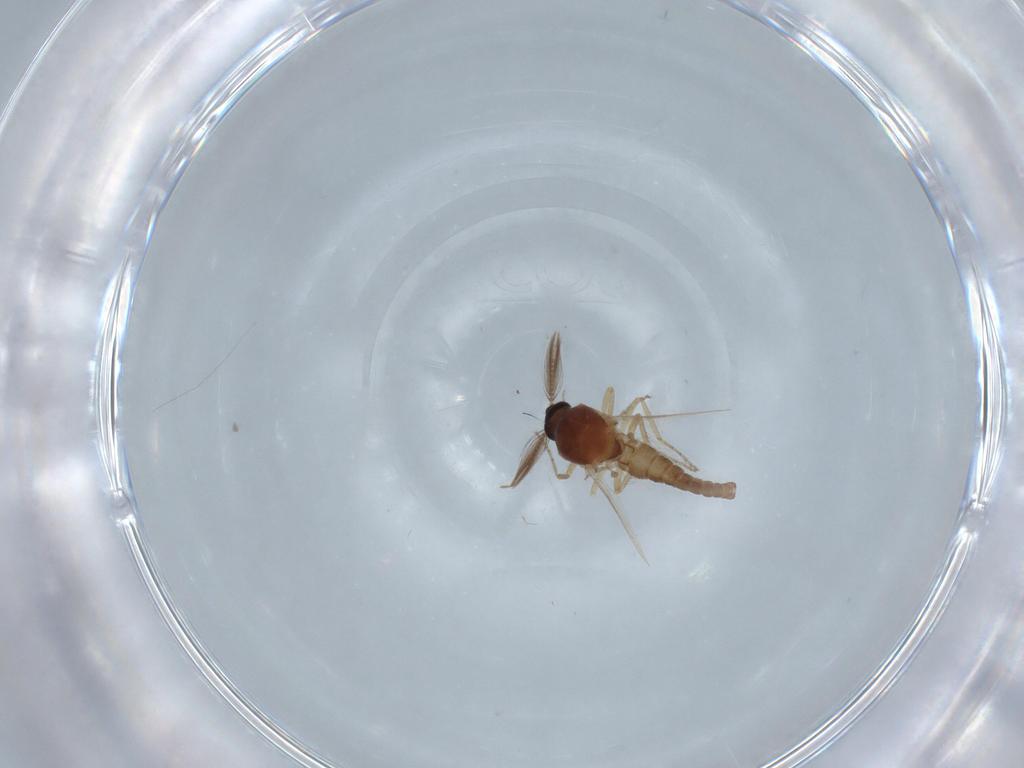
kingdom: Animalia
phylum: Arthropoda
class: Insecta
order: Diptera
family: Ceratopogonidae
